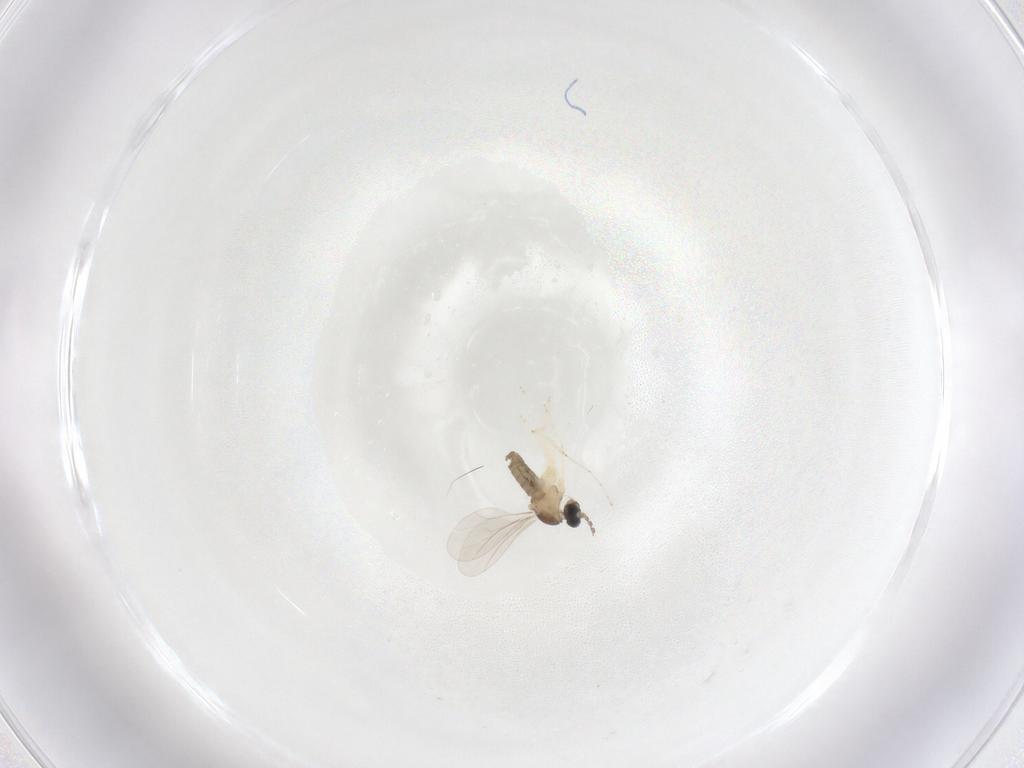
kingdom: Animalia
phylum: Arthropoda
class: Insecta
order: Diptera
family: Cecidomyiidae
